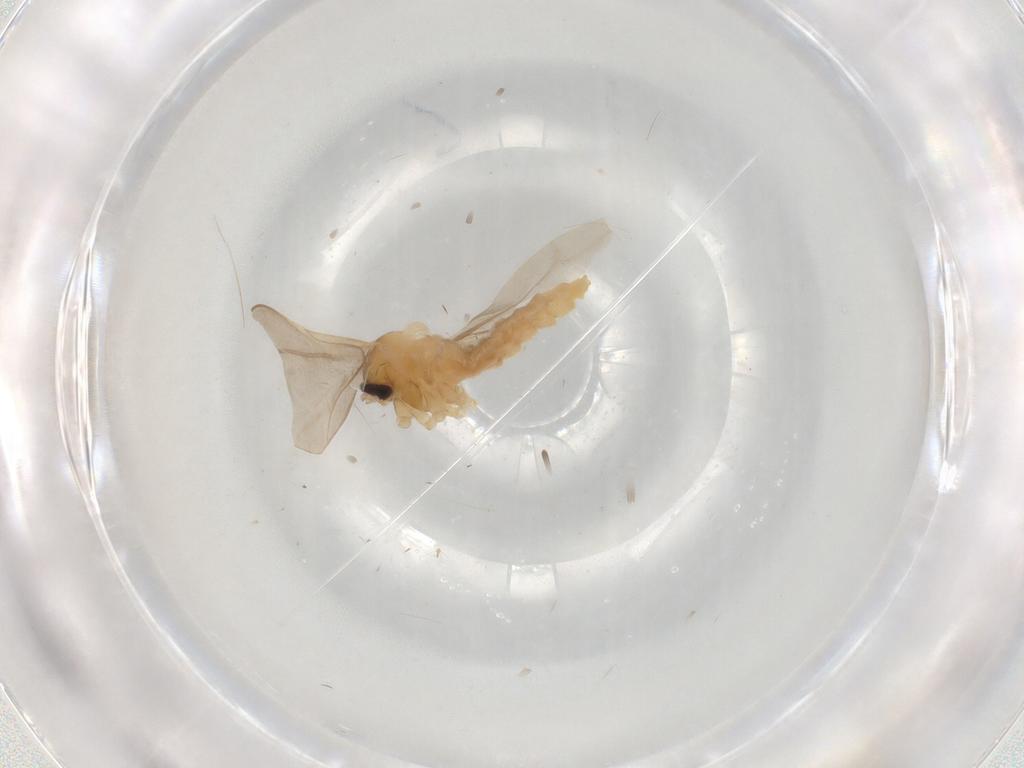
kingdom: Animalia
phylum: Arthropoda
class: Insecta
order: Diptera
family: Cecidomyiidae
